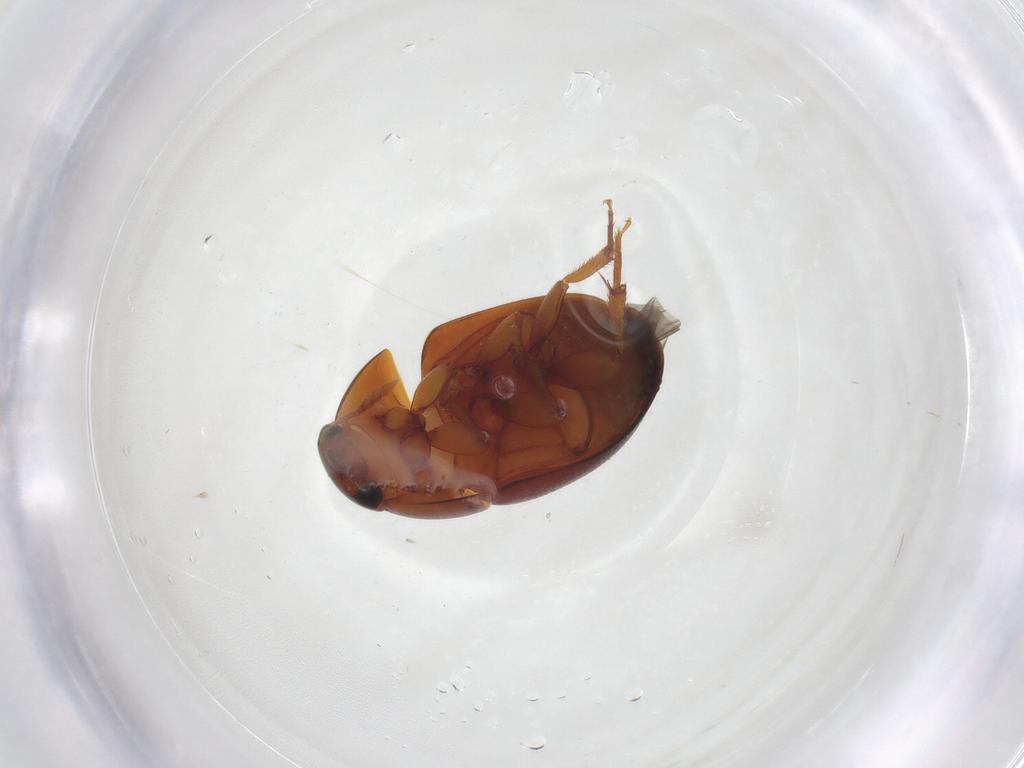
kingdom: Animalia
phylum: Arthropoda
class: Insecta
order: Coleoptera
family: Phalacridae
